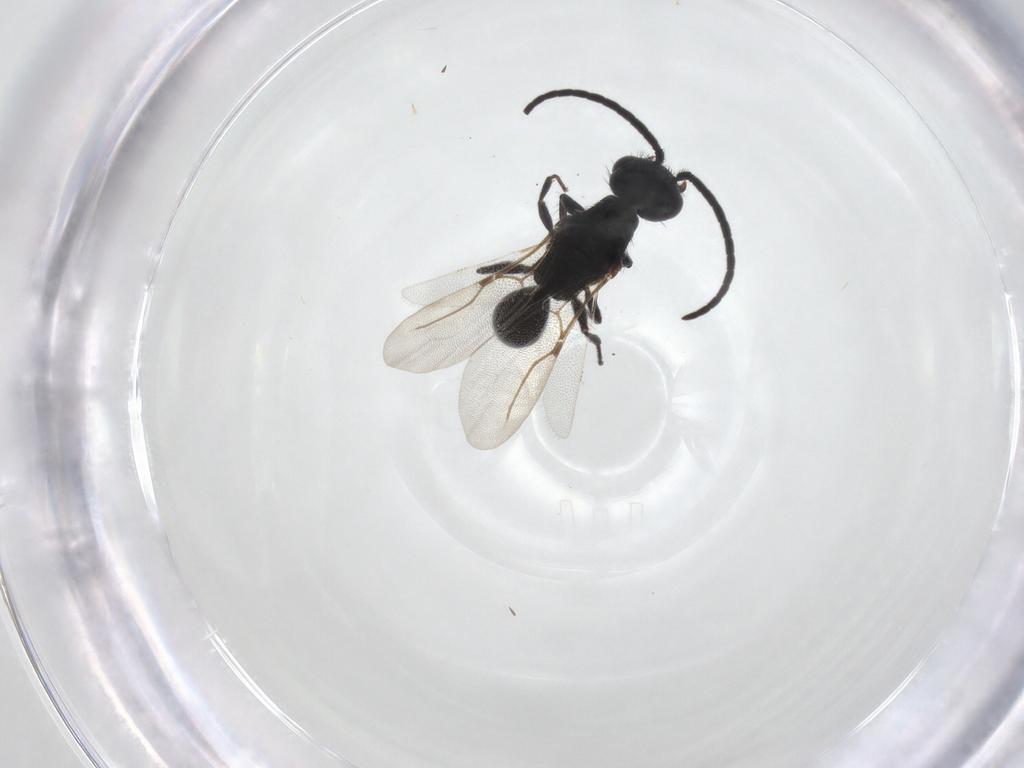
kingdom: Animalia
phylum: Arthropoda
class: Insecta
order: Hymenoptera
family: Bethylidae
